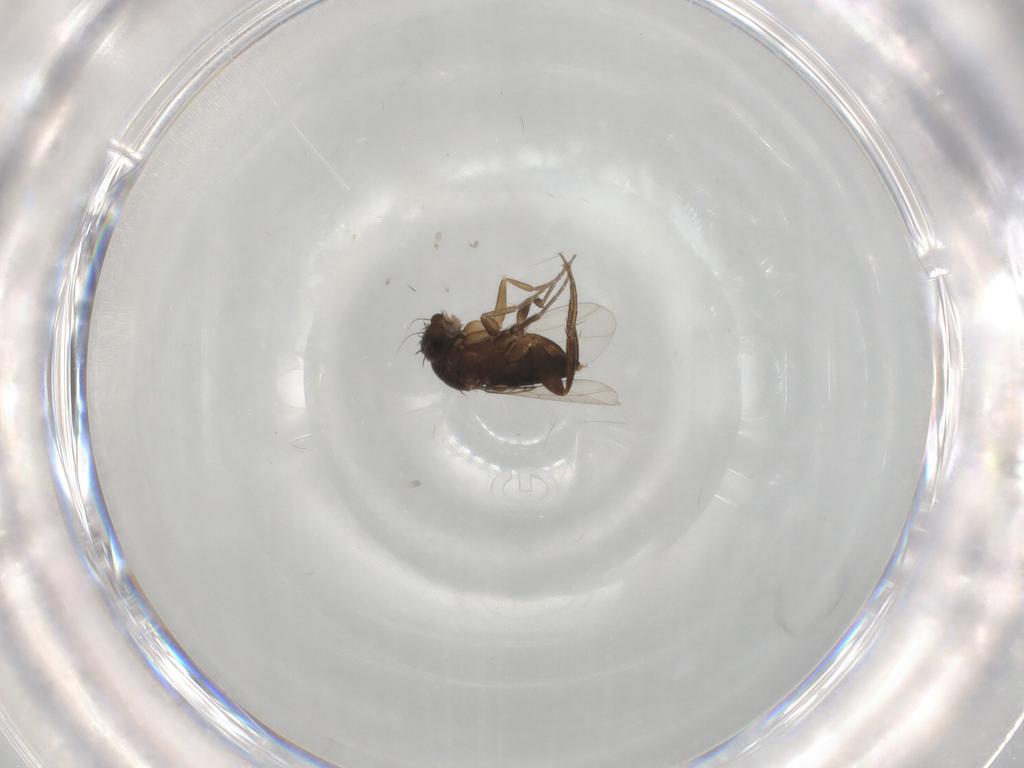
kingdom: Animalia
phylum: Arthropoda
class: Insecta
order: Diptera
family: Phoridae
